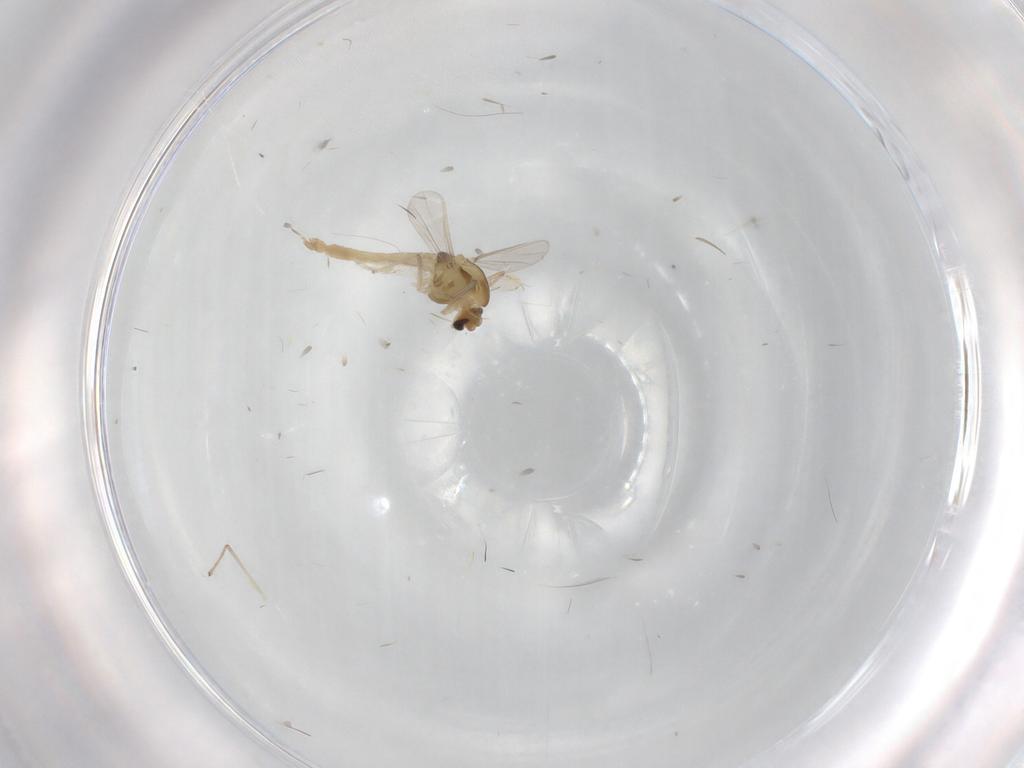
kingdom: Animalia
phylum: Arthropoda
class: Insecta
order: Diptera
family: Chironomidae
